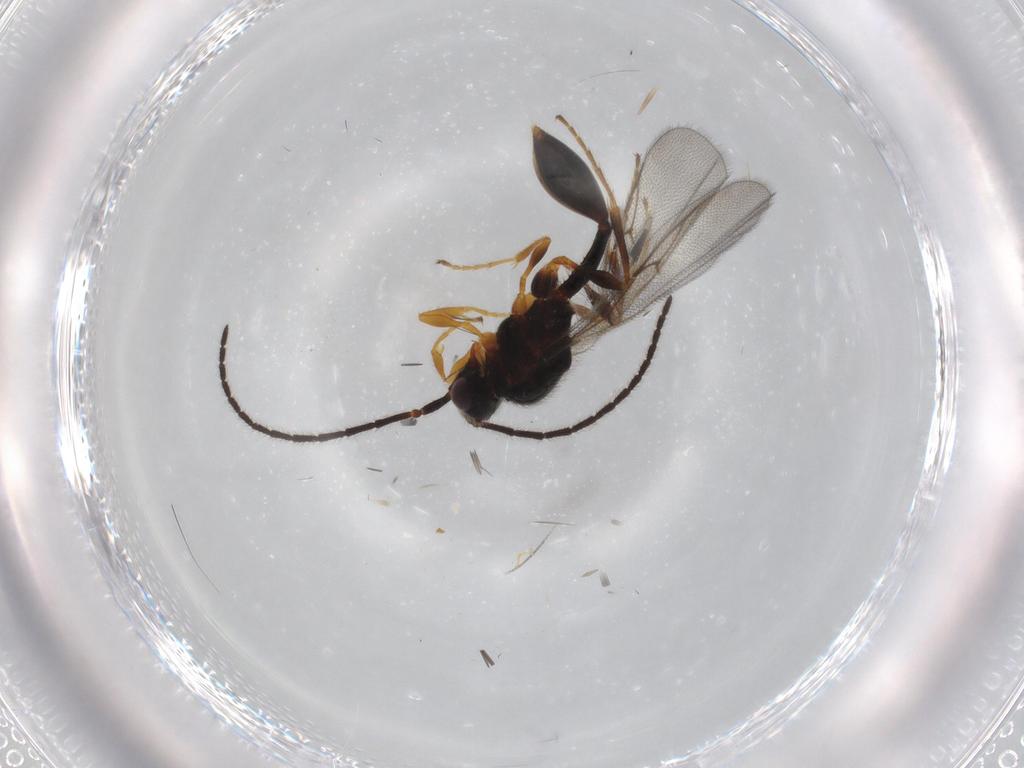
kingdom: Animalia
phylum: Arthropoda
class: Insecta
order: Hymenoptera
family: Diapriidae
